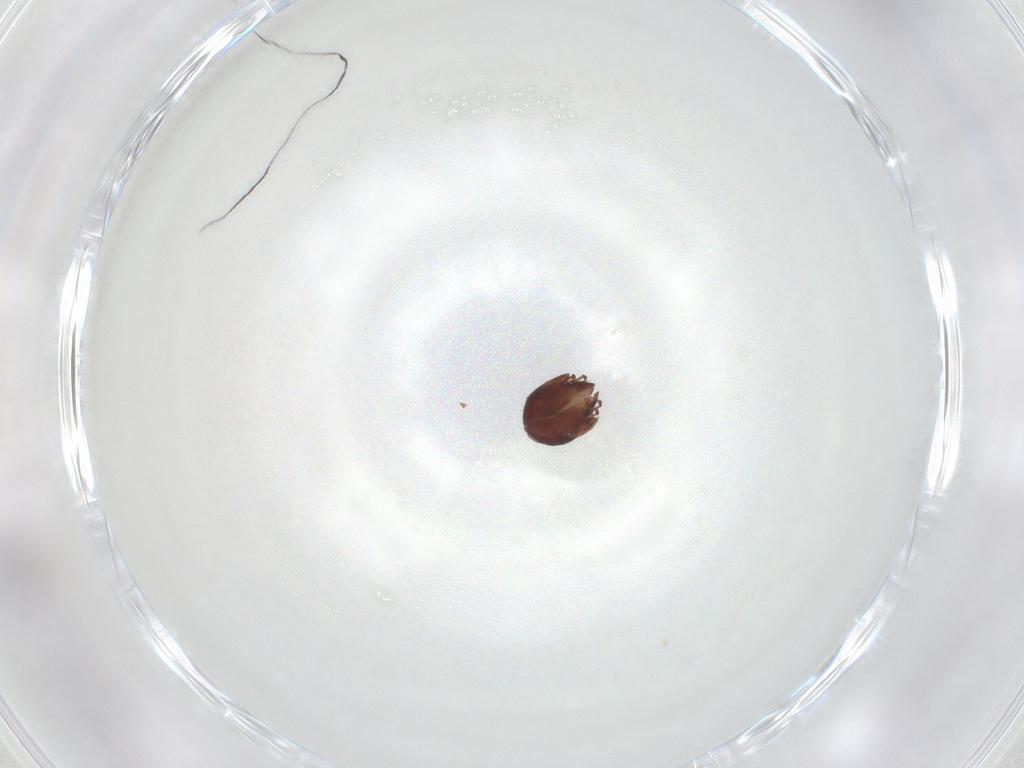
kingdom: Animalia
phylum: Arthropoda
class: Arachnida
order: Sarcoptiformes
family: Humerobatidae
